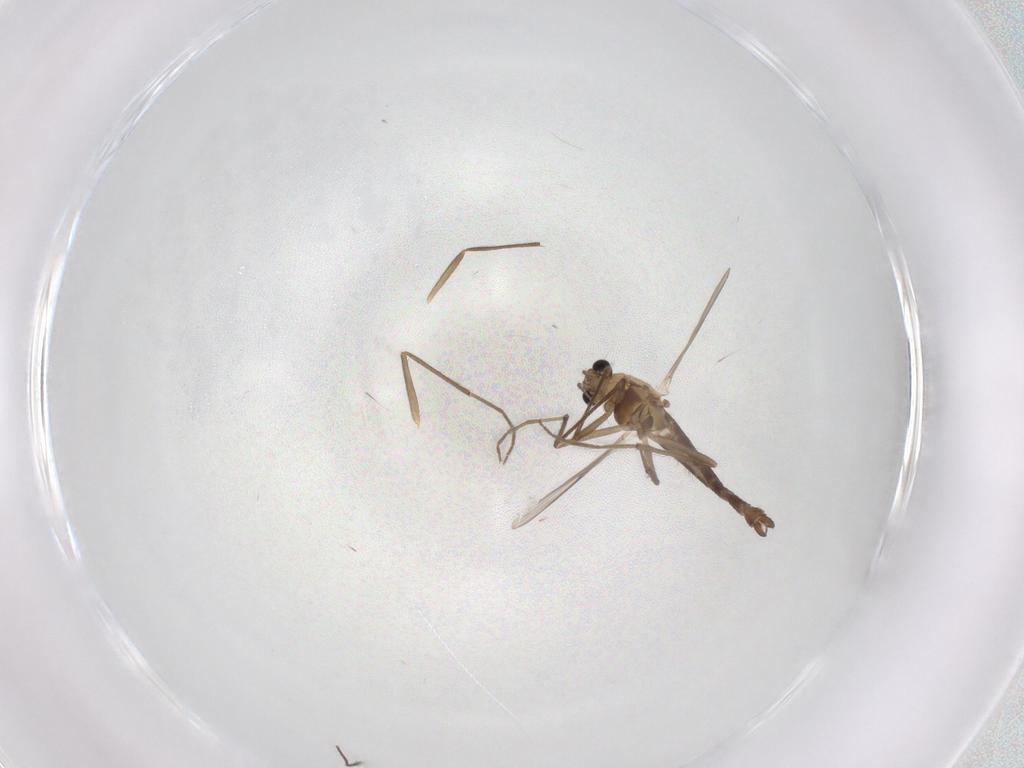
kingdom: Animalia
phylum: Arthropoda
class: Insecta
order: Diptera
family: Chironomidae
